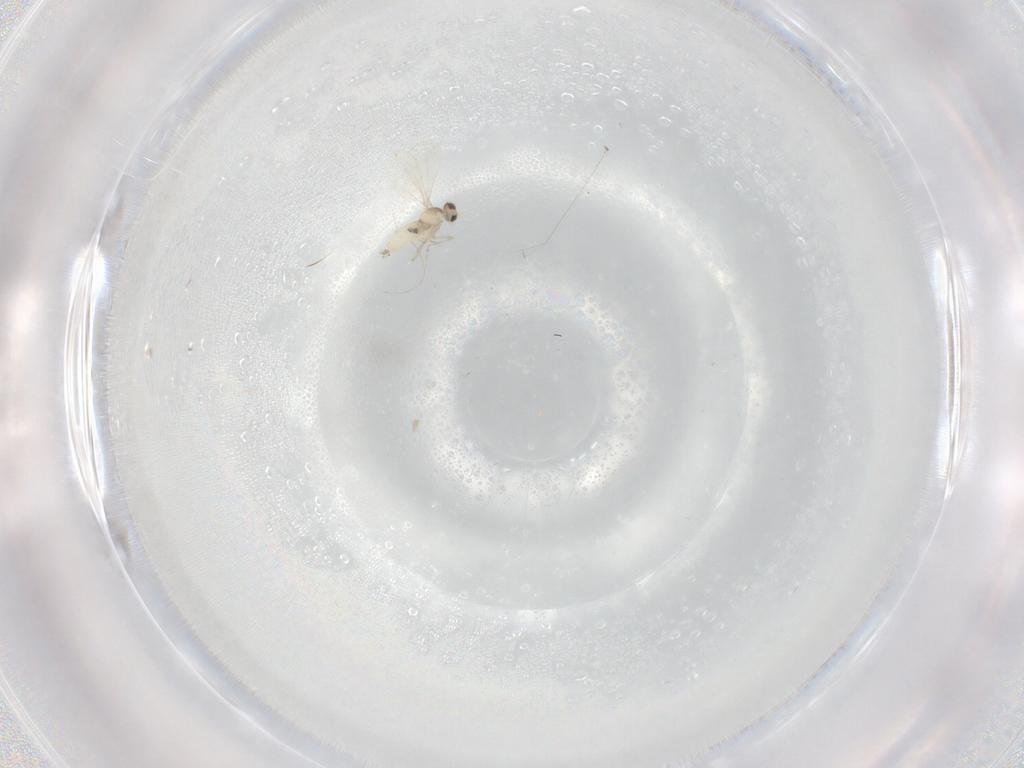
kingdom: Animalia
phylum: Arthropoda
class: Insecta
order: Diptera
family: Cecidomyiidae
